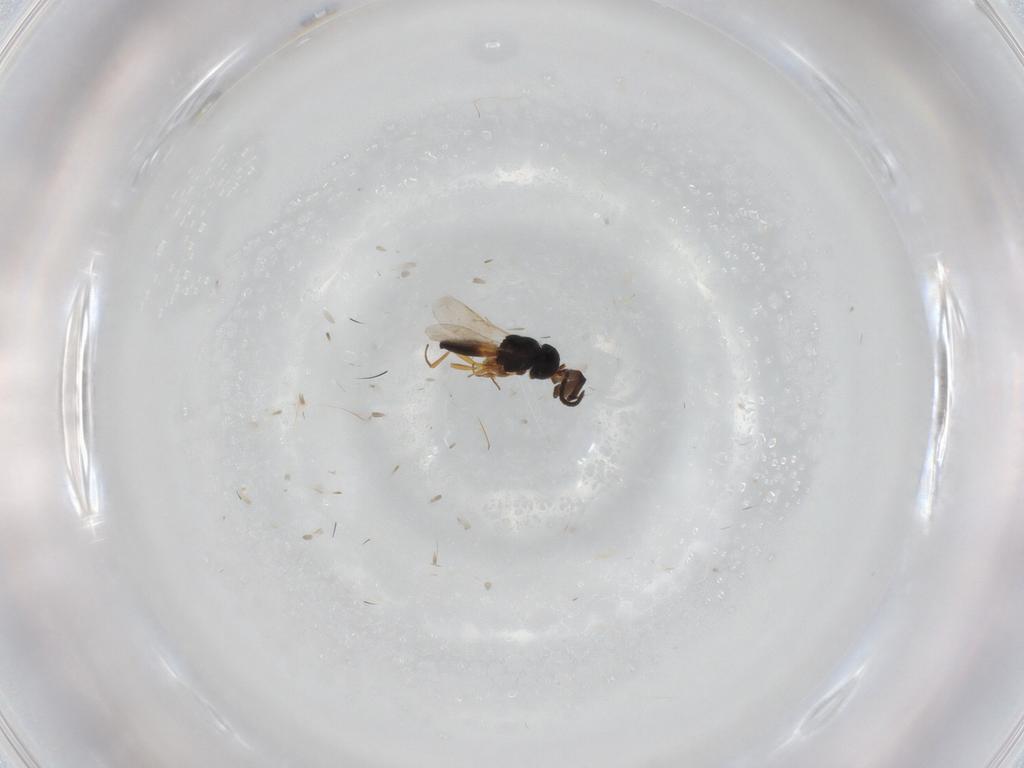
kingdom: Animalia
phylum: Arthropoda
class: Insecta
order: Hymenoptera
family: Scelionidae
